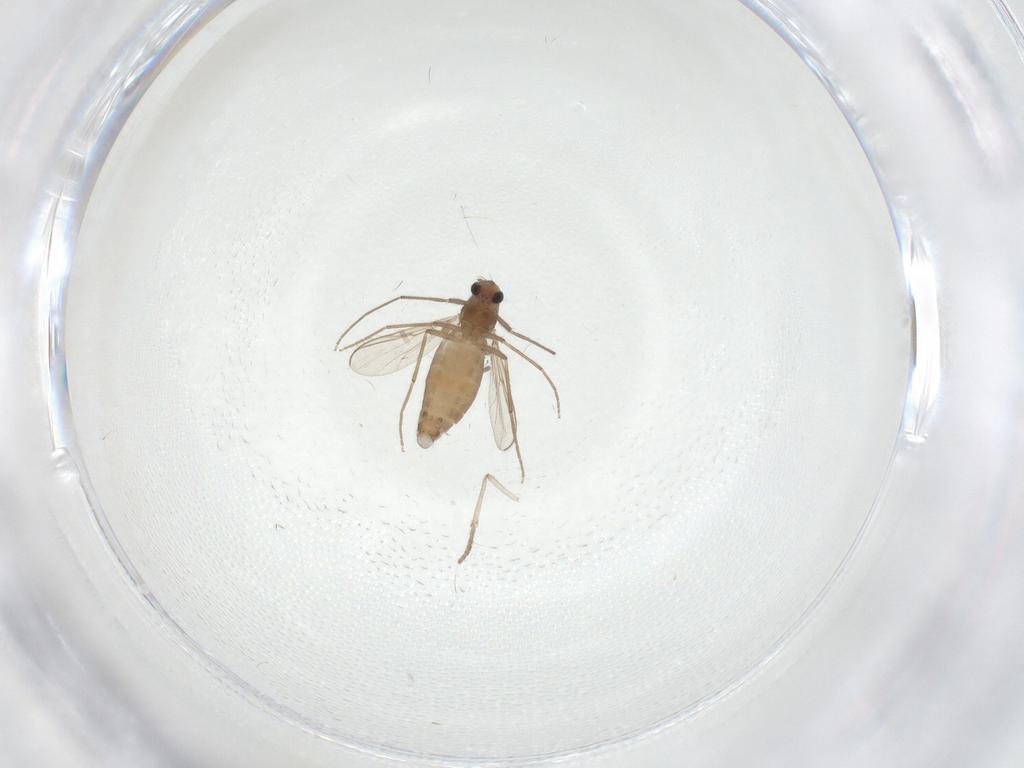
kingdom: Animalia
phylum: Arthropoda
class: Insecta
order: Diptera
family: Chironomidae
